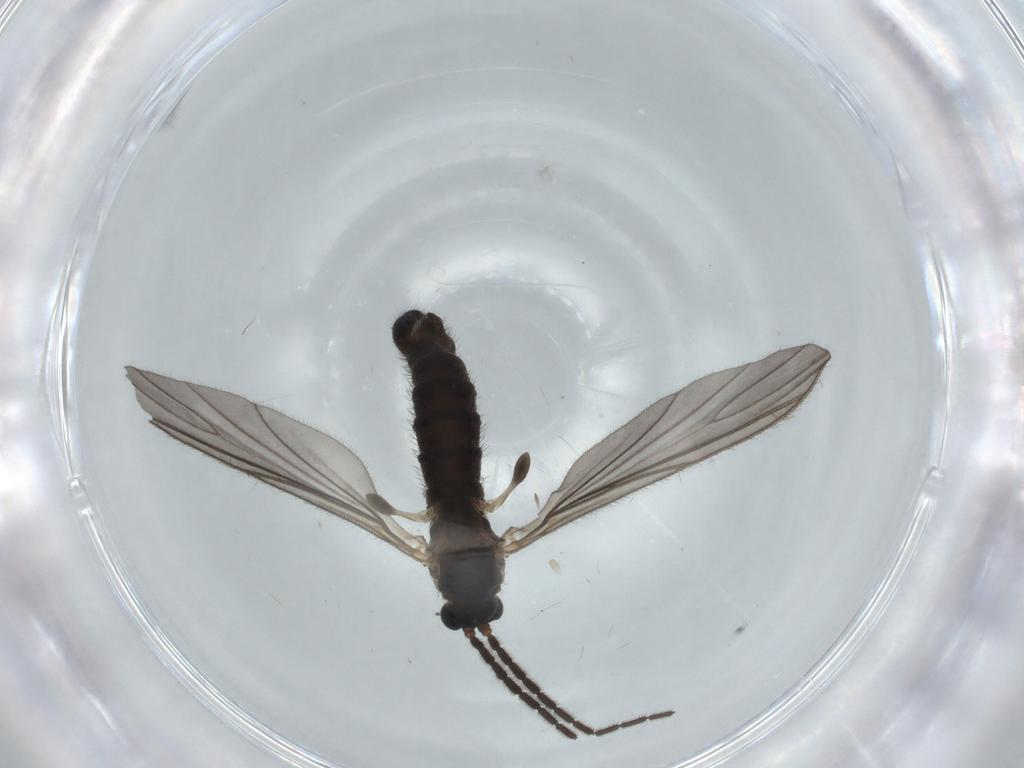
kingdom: Animalia
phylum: Arthropoda
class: Insecta
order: Diptera
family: Sciaridae
